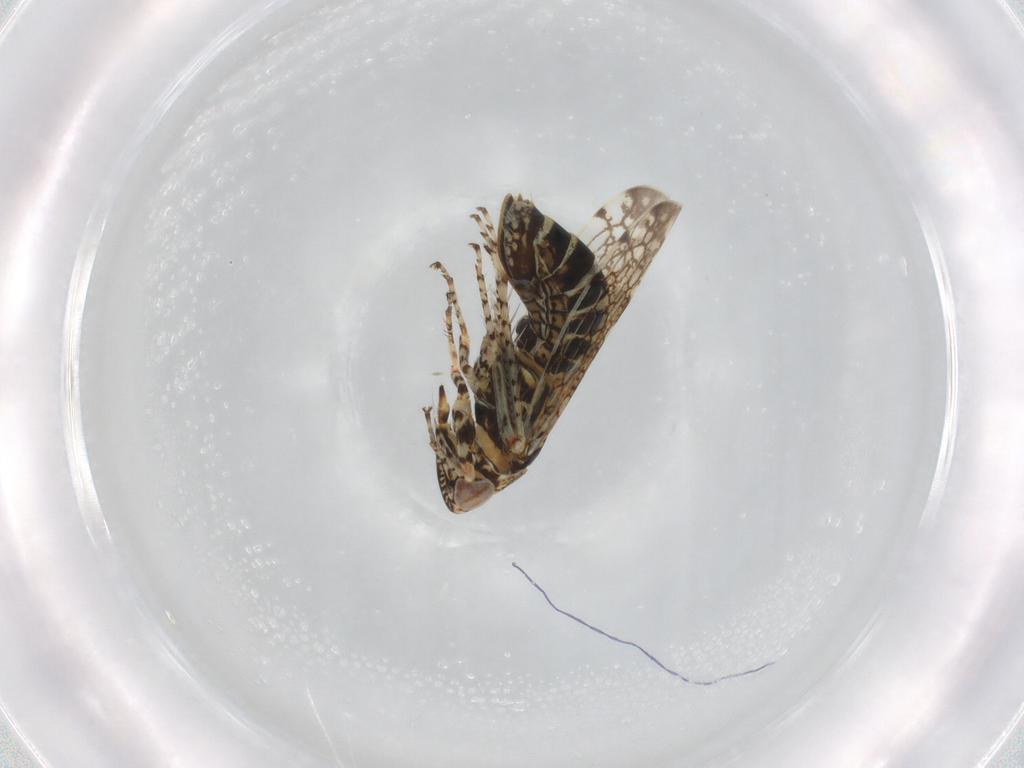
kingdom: Animalia
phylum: Arthropoda
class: Insecta
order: Hemiptera
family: Cicadellidae
